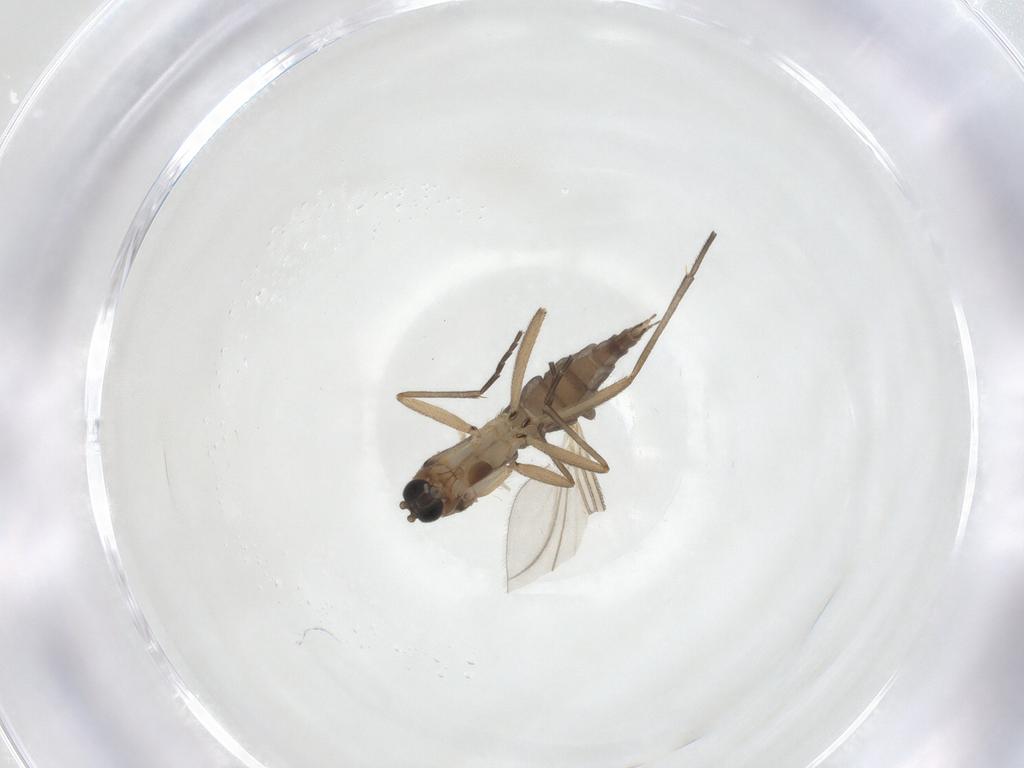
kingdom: Animalia
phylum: Arthropoda
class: Insecta
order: Diptera
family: Sciaridae
